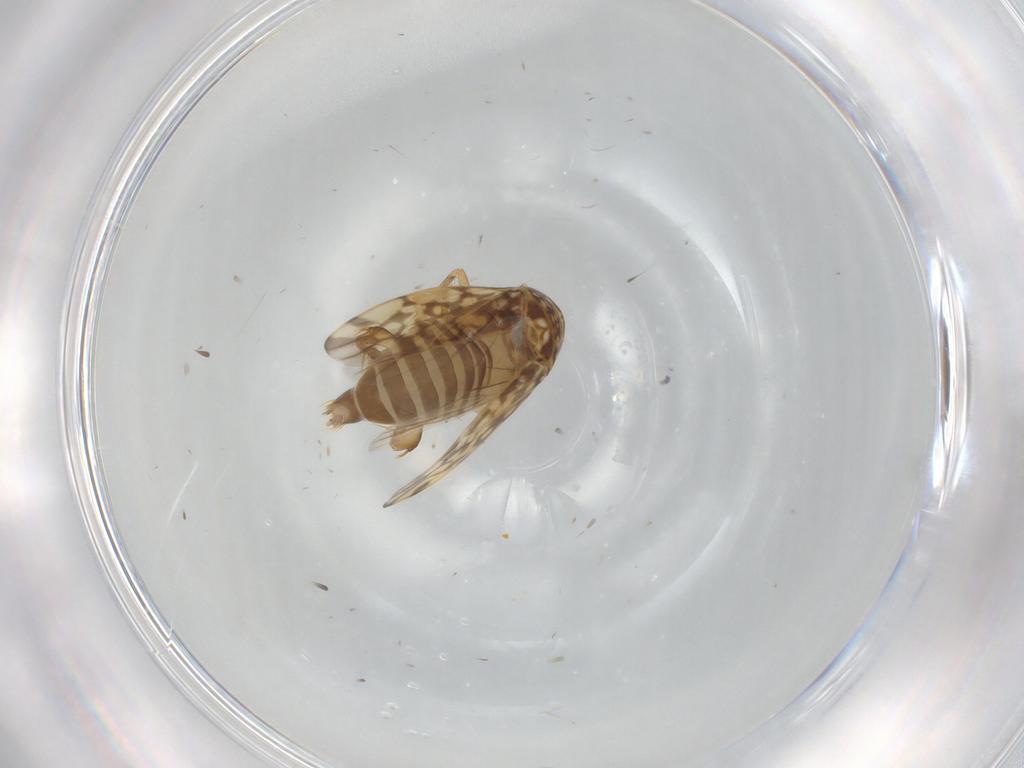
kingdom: Animalia
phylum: Arthropoda
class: Insecta
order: Hemiptera
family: Cicadellidae
